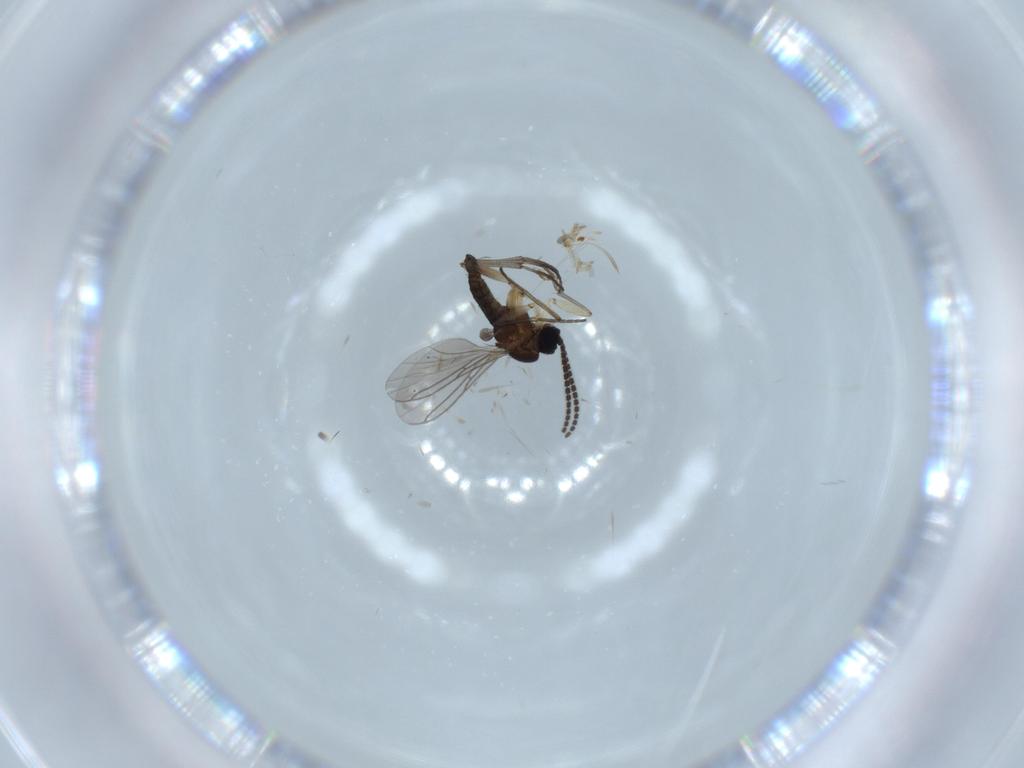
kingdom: Animalia
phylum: Arthropoda
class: Insecta
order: Diptera
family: Sciaridae
